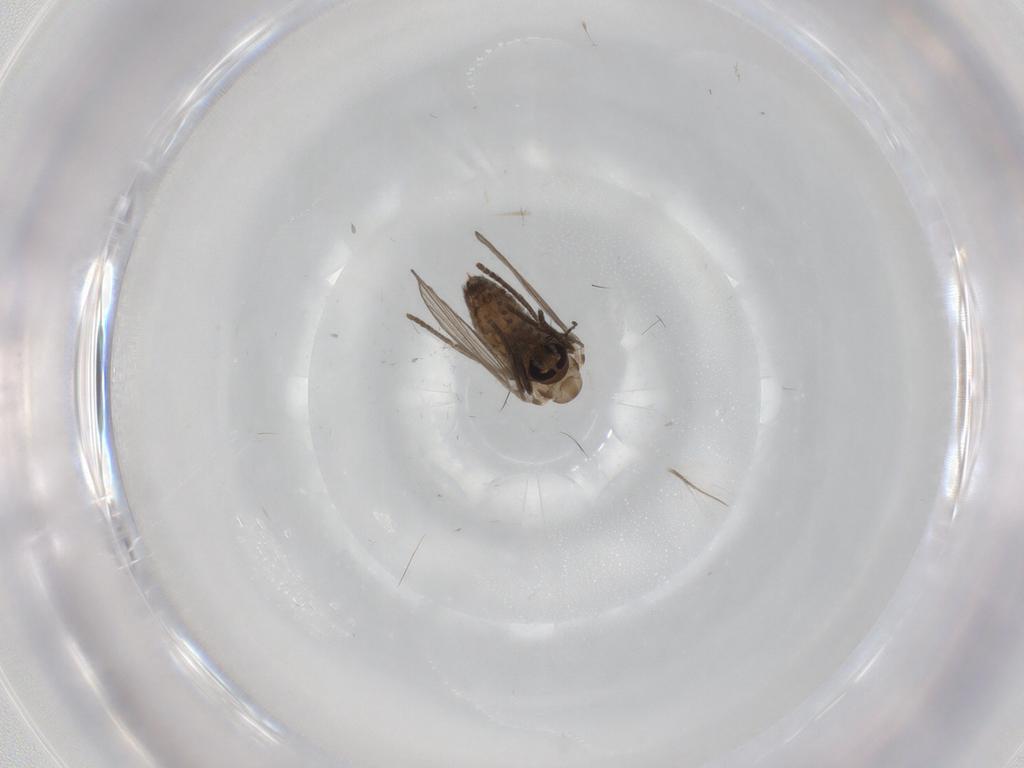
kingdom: Animalia
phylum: Arthropoda
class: Insecta
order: Diptera
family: Psychodidae
